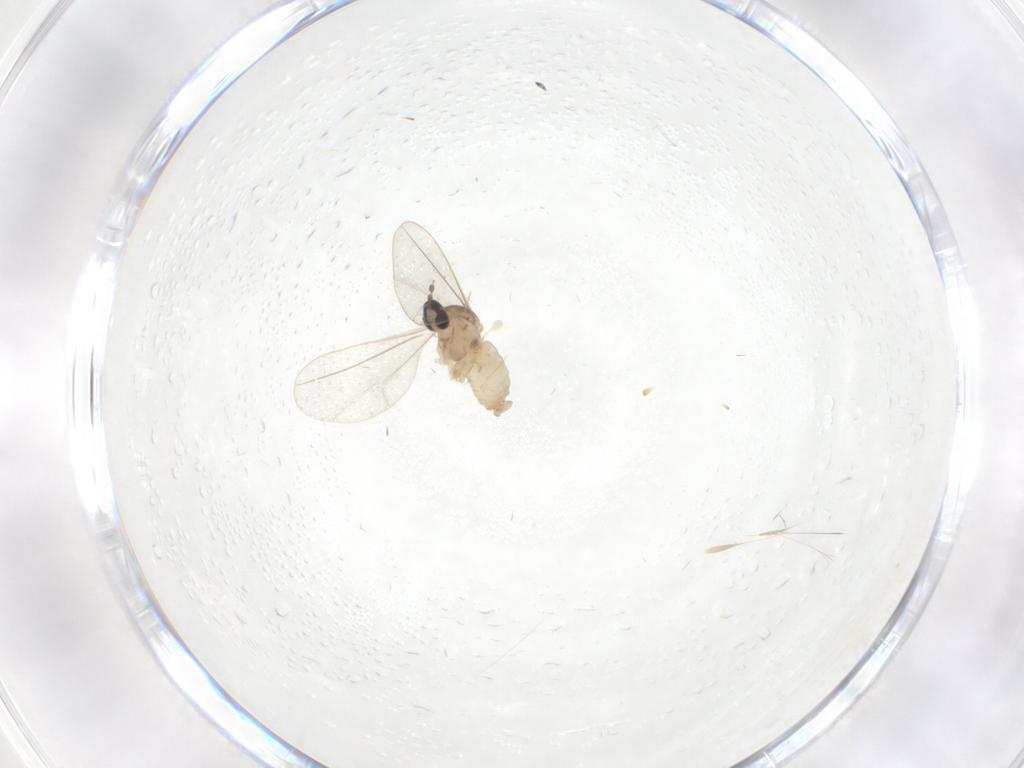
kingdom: Animalia
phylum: Arthropoda
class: Insecta
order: Diptera
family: Cecidomyiidae
